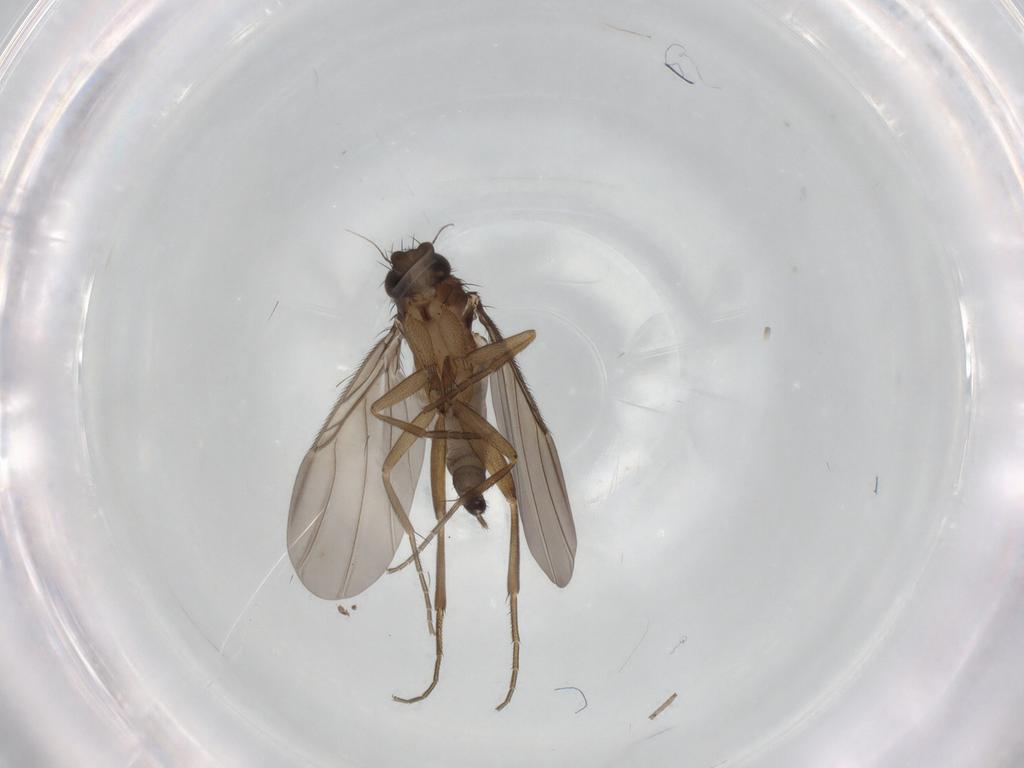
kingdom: Animalia
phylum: Arthropoda
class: Insecta
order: Diptera
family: Phoridae
